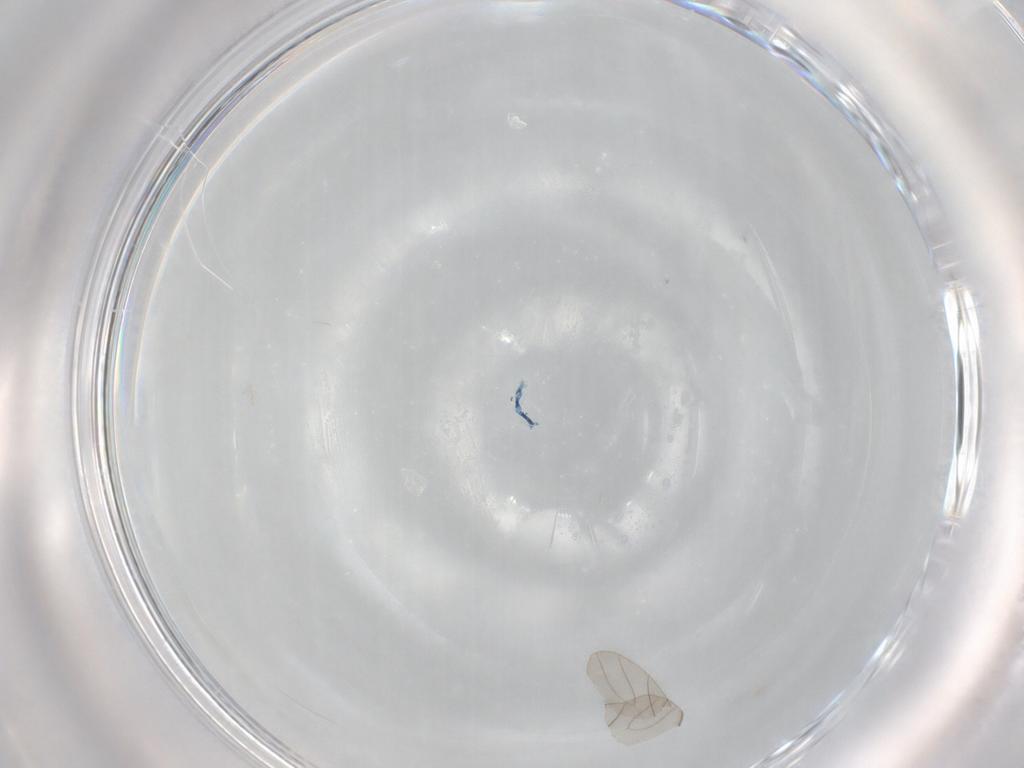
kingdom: Animalia
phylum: Arthropoda
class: Insecta
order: Diptera
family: Sciaridae
